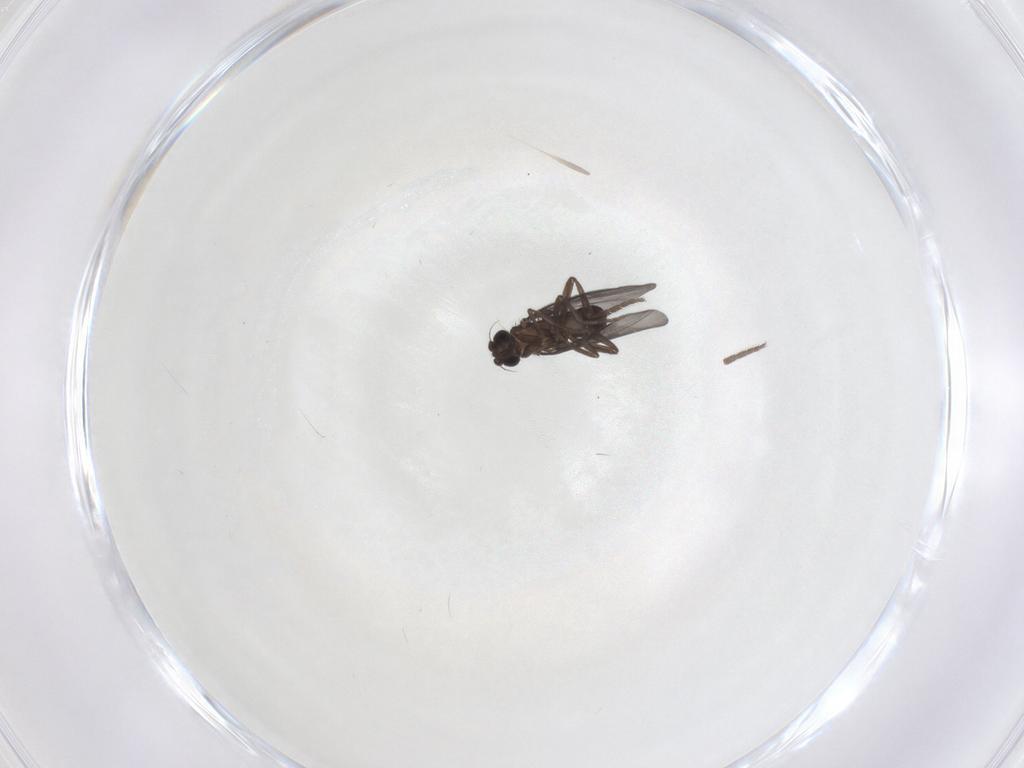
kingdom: Animalia
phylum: Arthropoda
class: Insecta
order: Diptera
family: Phoridae
